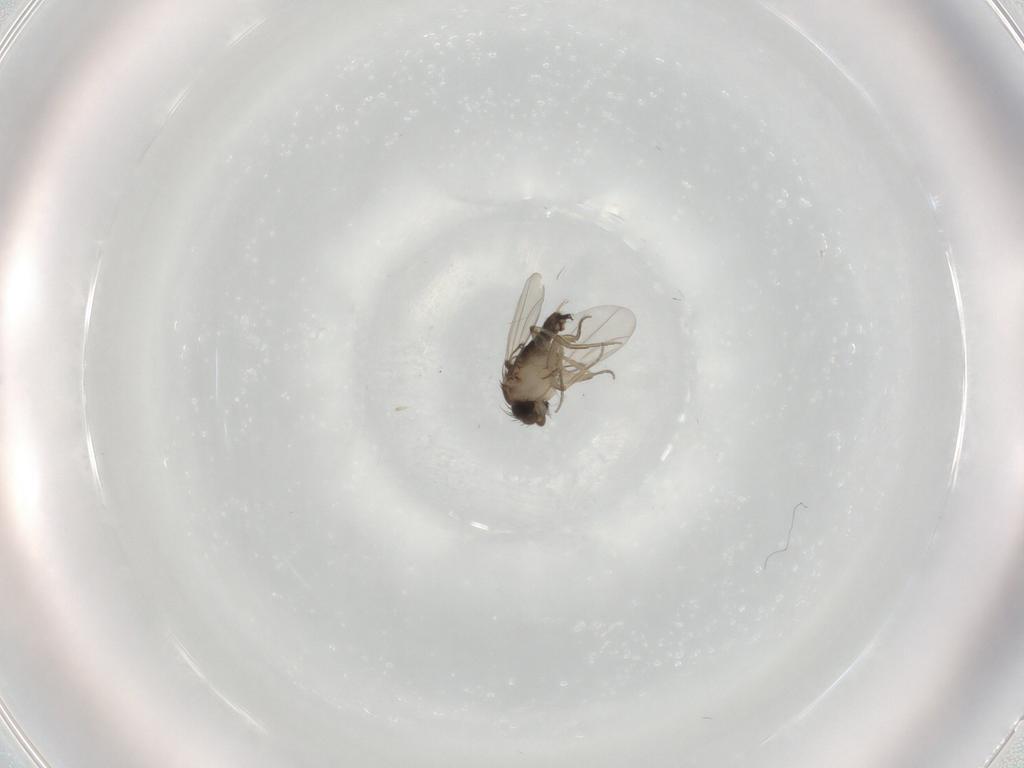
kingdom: Animalia
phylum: Arthropoda
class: Insecta
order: Diptera
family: Phoridae
